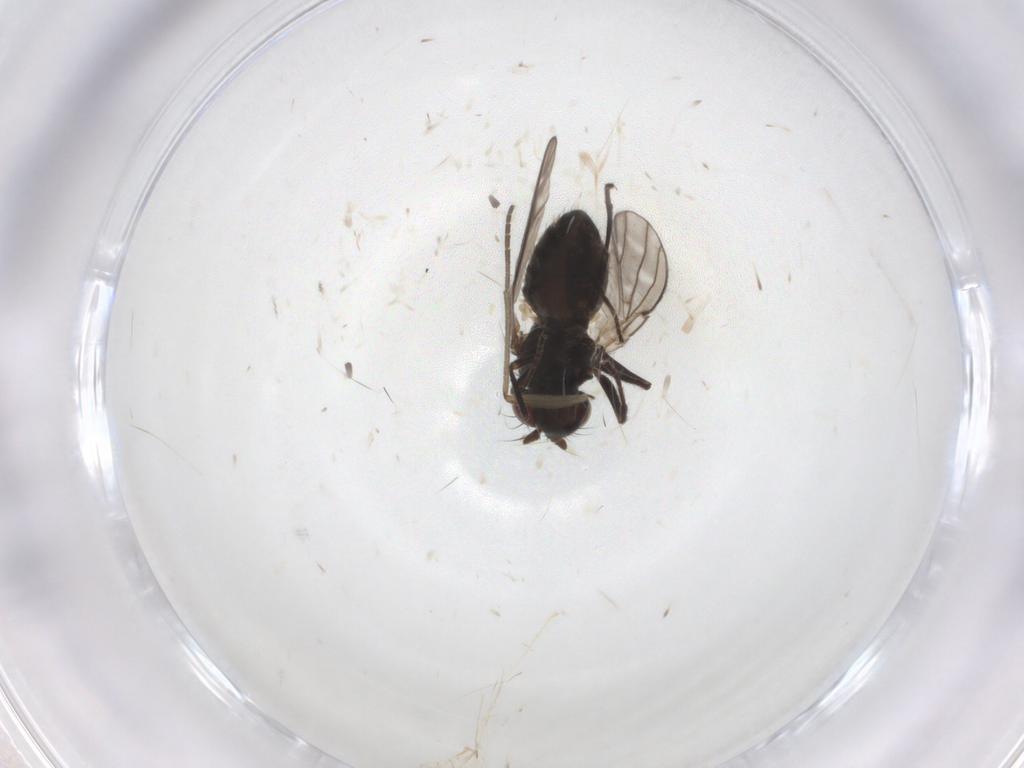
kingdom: Animalia
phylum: Arthropoda
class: Insecta
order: Diptera
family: Ephydridae
